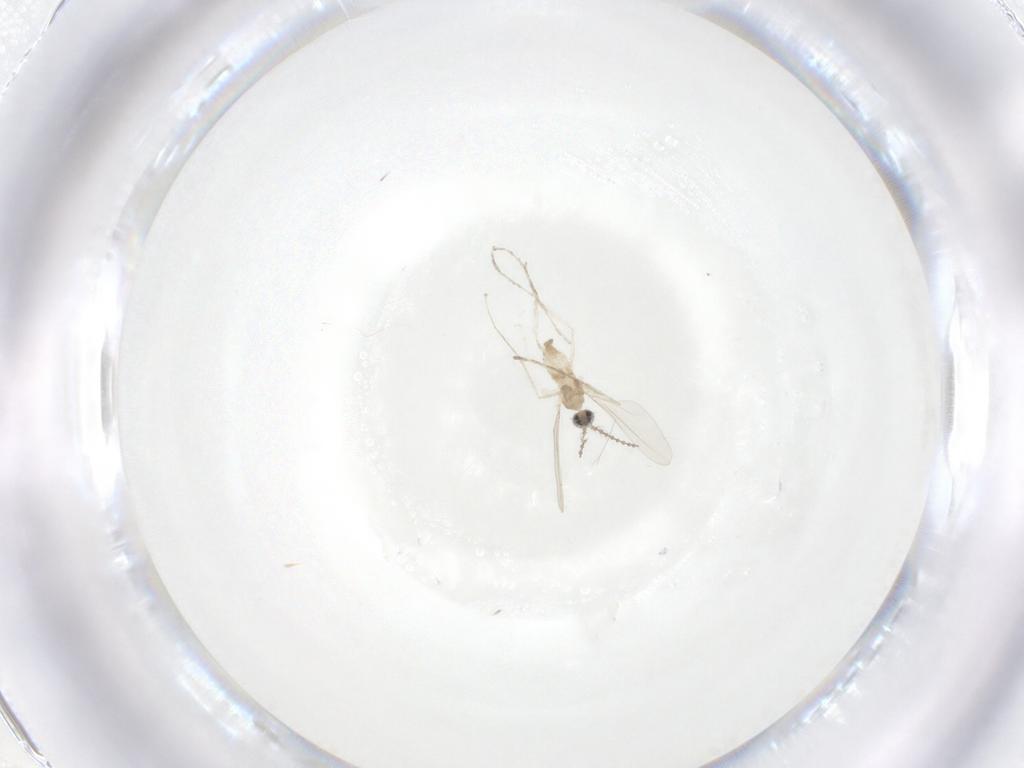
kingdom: Animalia
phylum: Arthropoda
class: Insecta
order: Diptera
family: Cecidomyiidae
